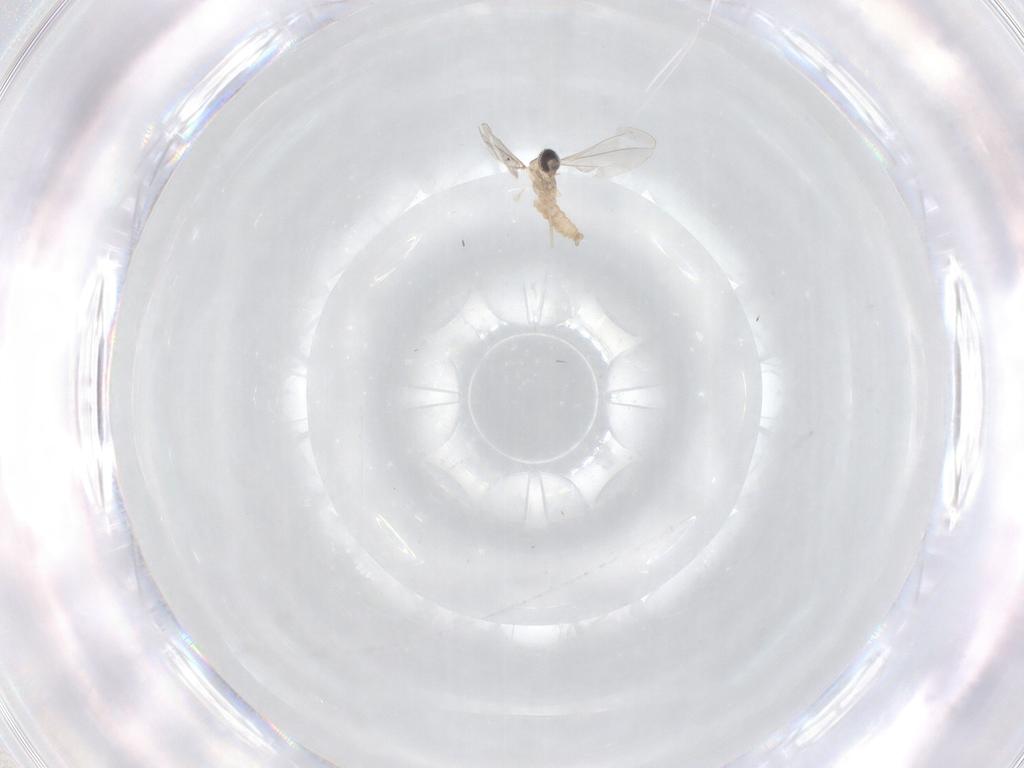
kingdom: Animalia
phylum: Arthropoda
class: Insecta
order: Diptera
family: Cecidomyiidae
